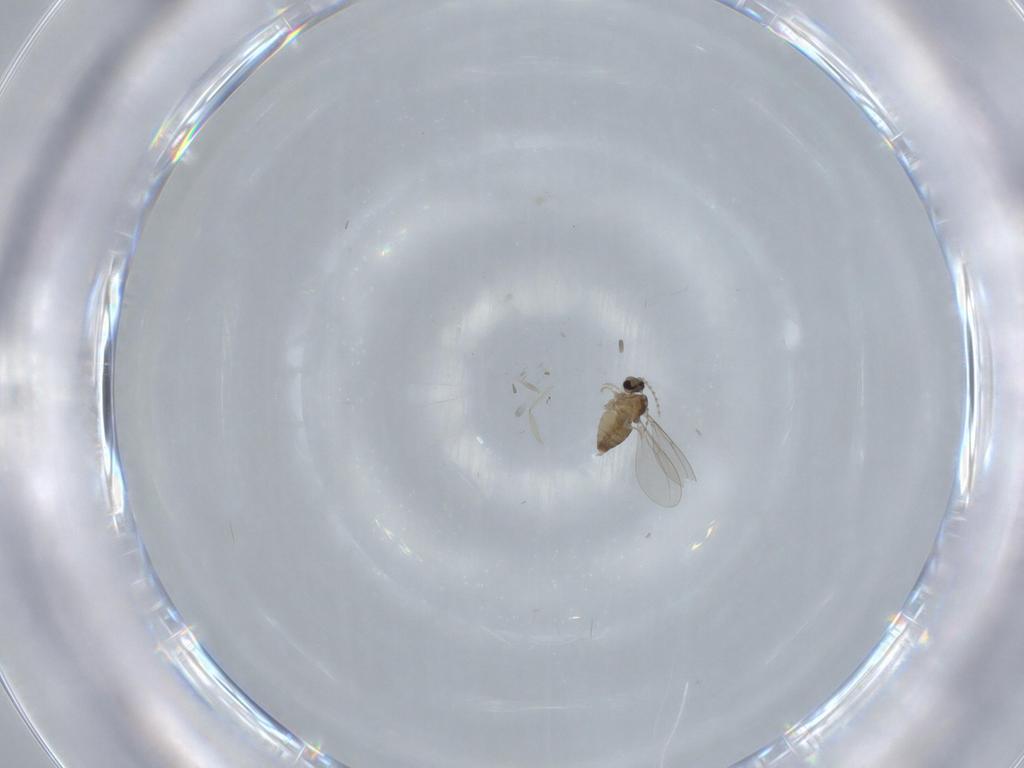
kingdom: Animalia
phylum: Arthropoda
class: Insecta
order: Diptera
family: Cecidomyiidae
